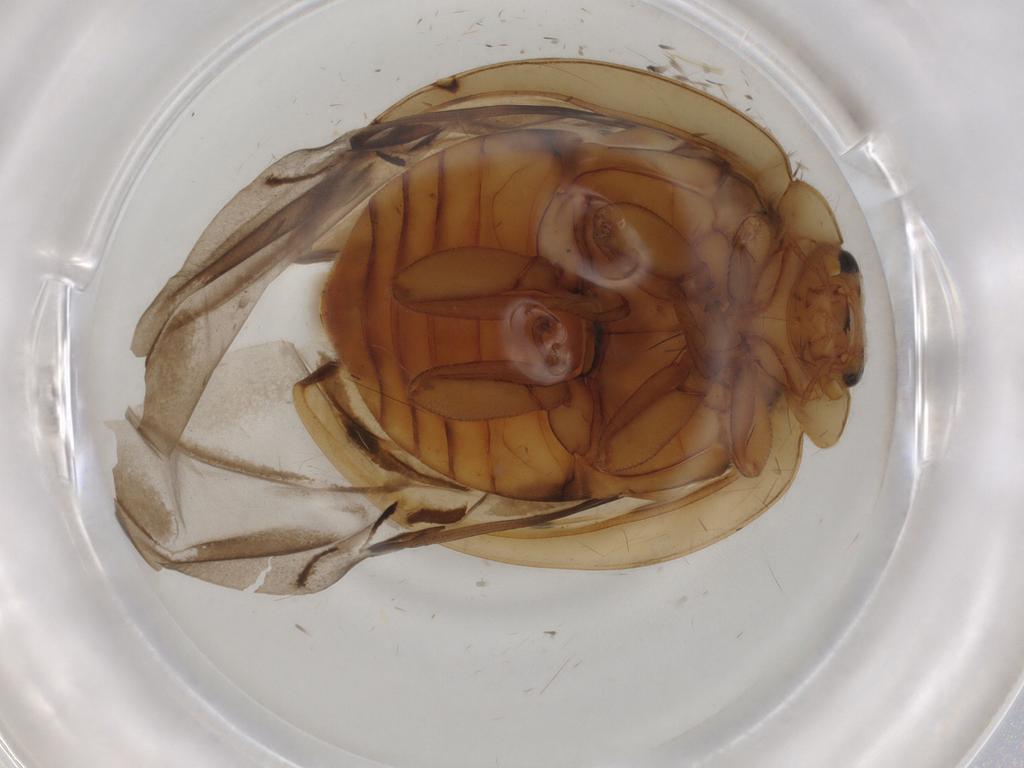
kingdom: Animalia
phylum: Arthropoda
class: Insecta
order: Coleoptera
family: Coccinellidae
